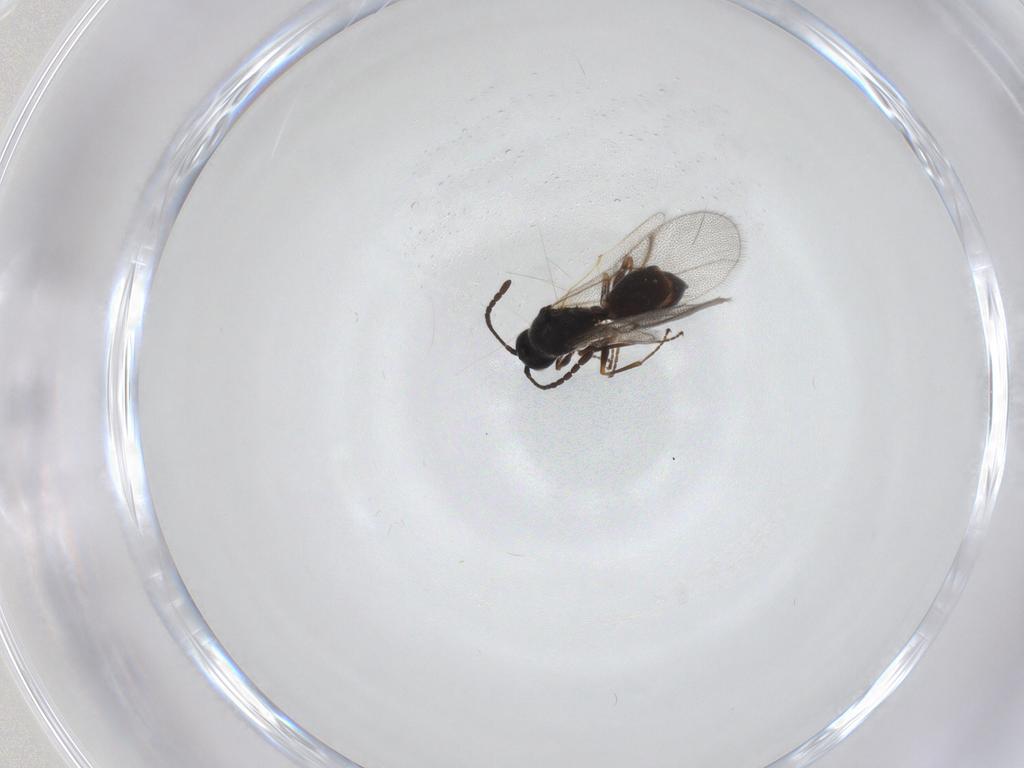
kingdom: Animalia
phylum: Arthropoda
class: Insecta
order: Hymenoptera
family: Figitidae
